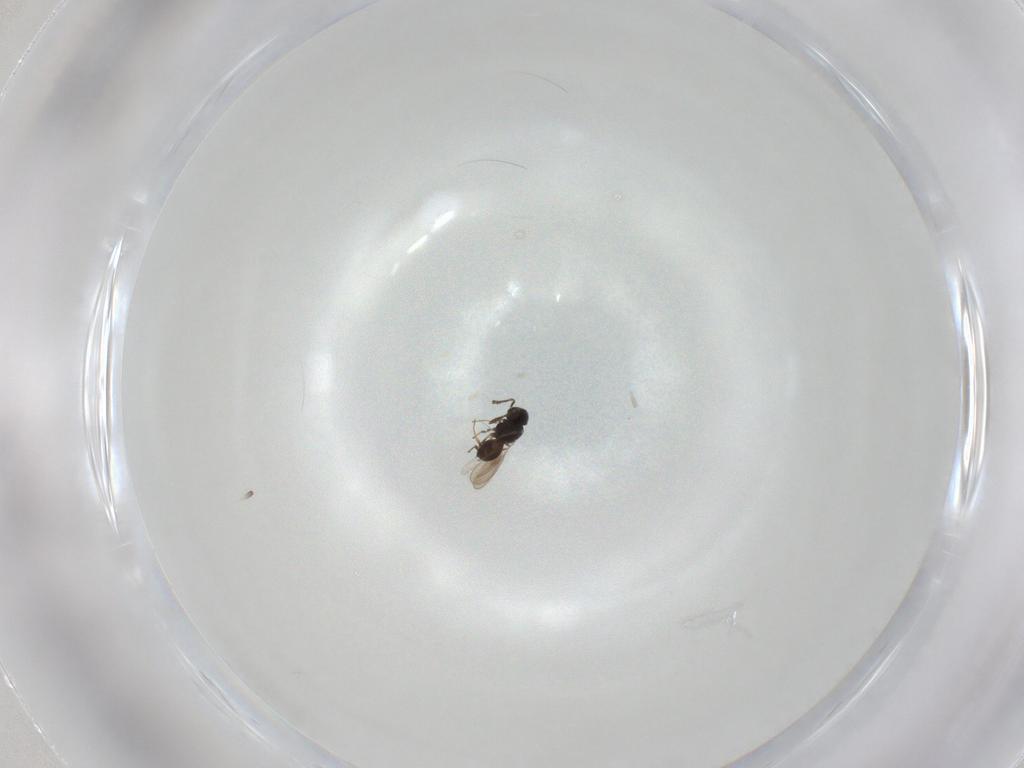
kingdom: Animalia
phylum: Arthropoda
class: Insecta
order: Hymenoptera
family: Scelionidae
